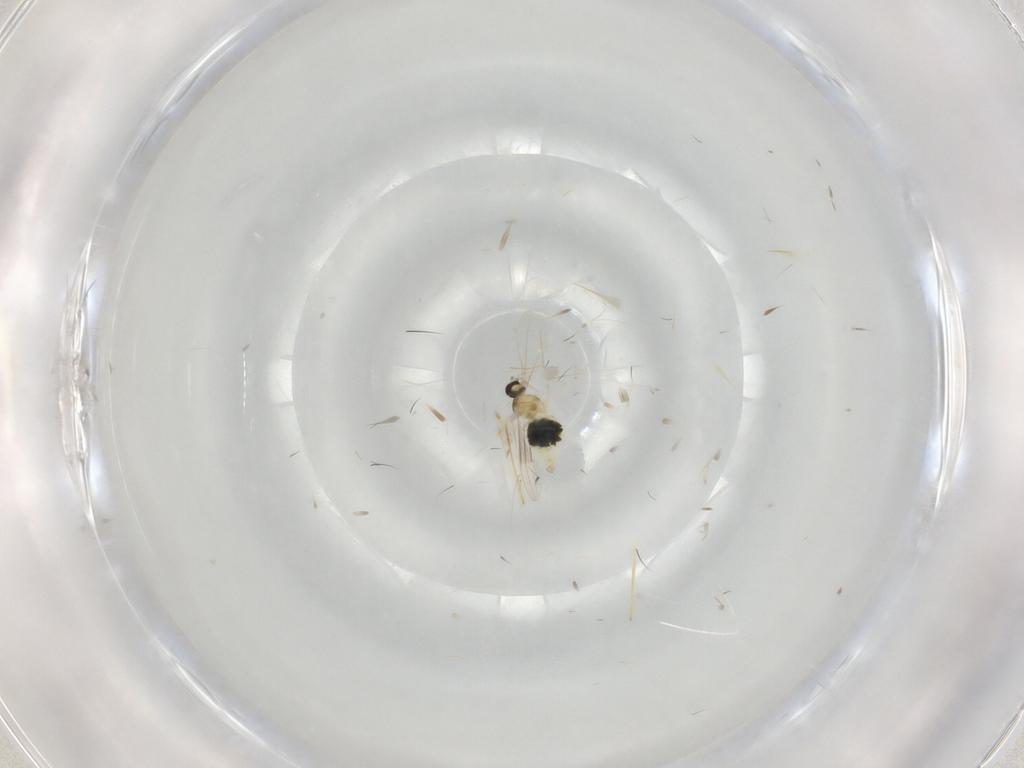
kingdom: Animalia
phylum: Arthropoda
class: Insecta
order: Diptera
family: Cecidomyiidae
